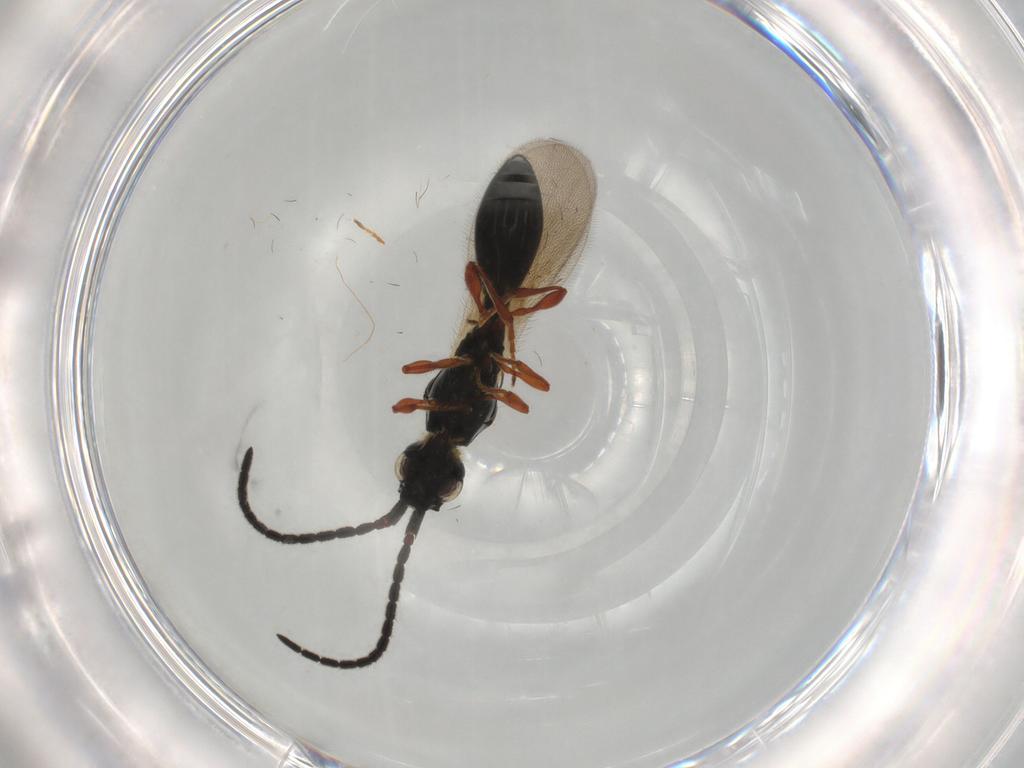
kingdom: Animalia
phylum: Arthropoda
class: Insecta
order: Hymenoptera
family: Diapriidae
